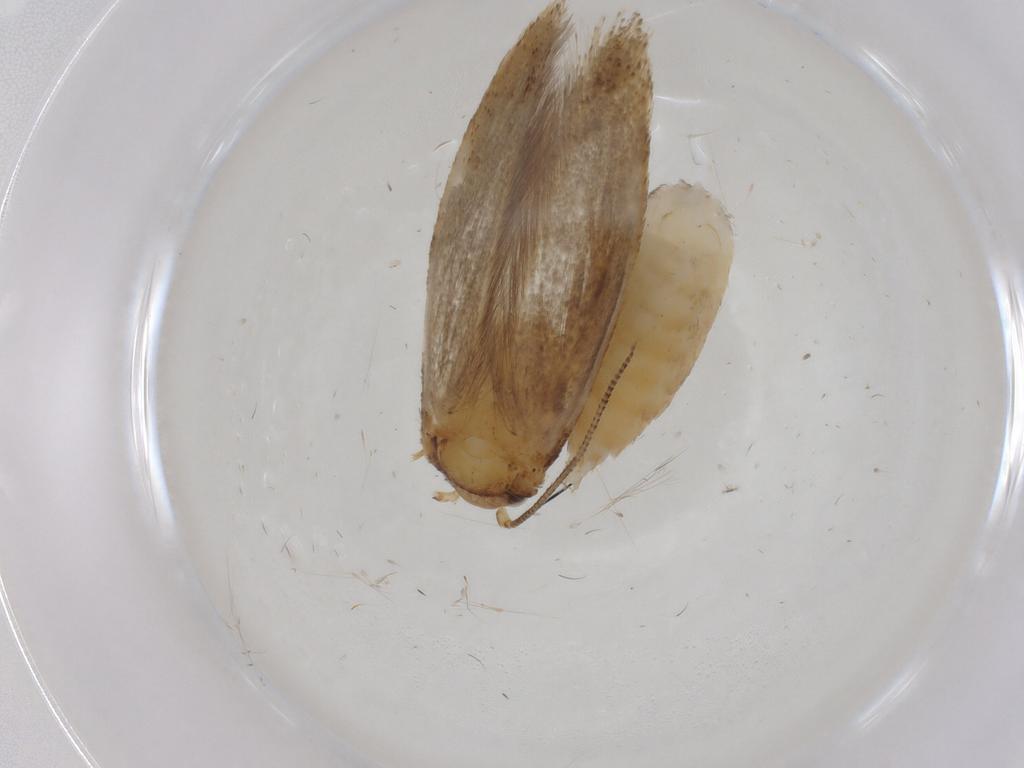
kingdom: Animalia
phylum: Arthropoda
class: Insecta
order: Lepidoptera
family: Tineidae
